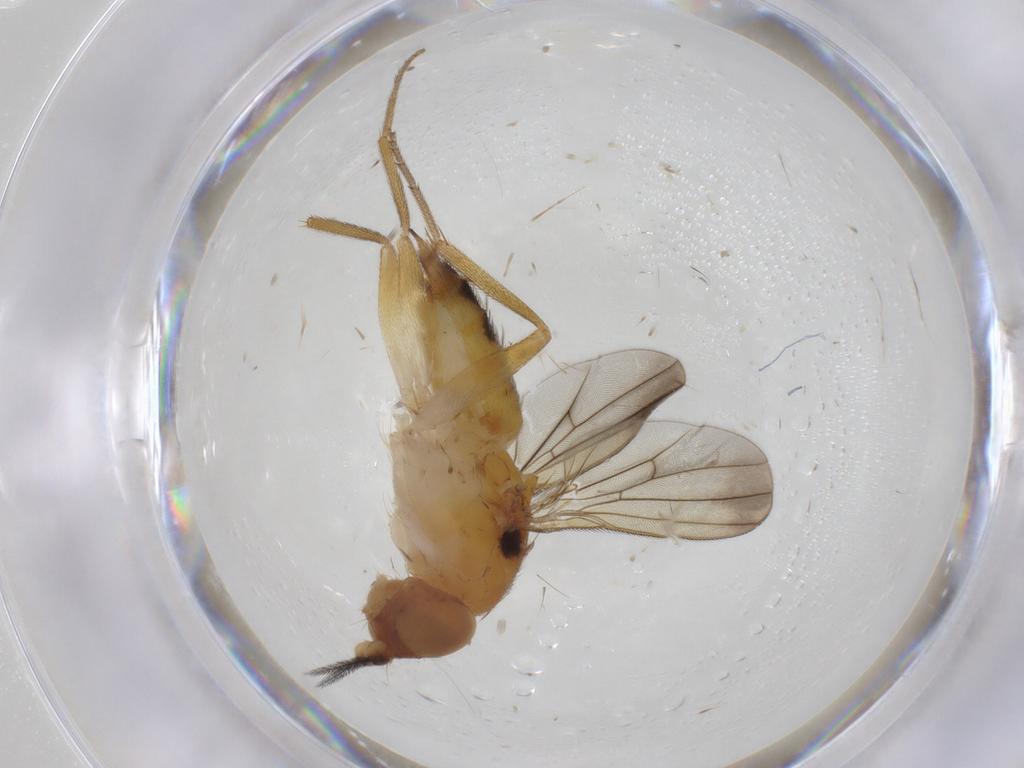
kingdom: Animalia
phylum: Arthropoda
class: Insecta
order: Diptera
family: Clusiidae
